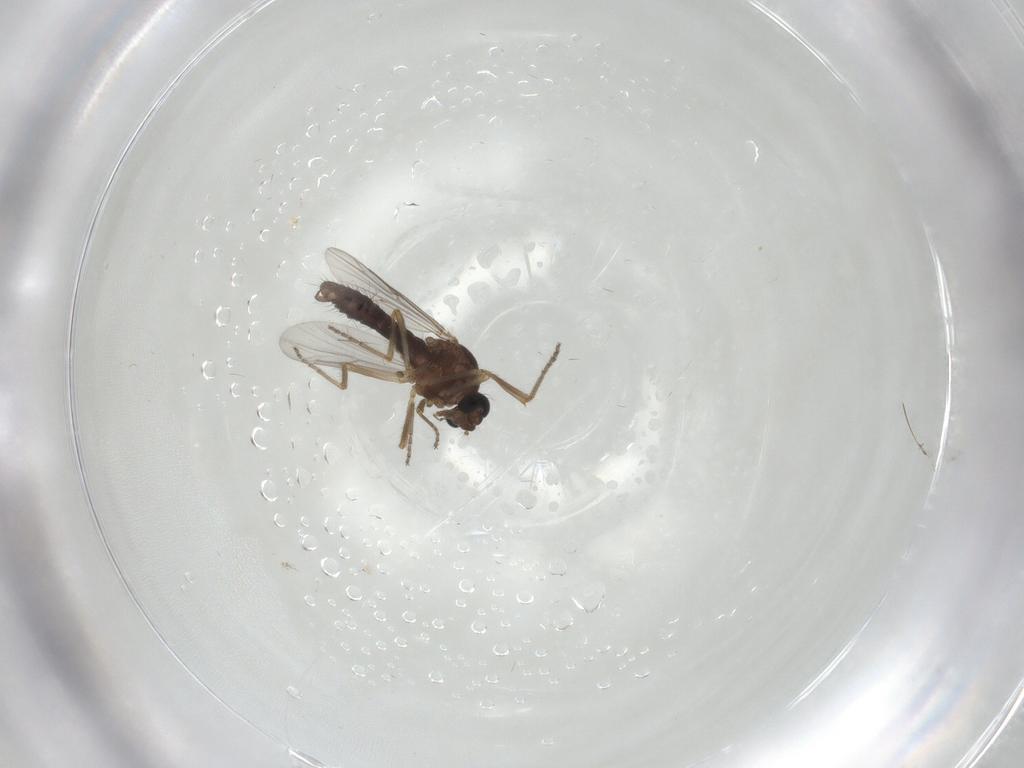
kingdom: Animalia
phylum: Arthropoda
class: Insecta
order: Diptera
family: Chironomidae
